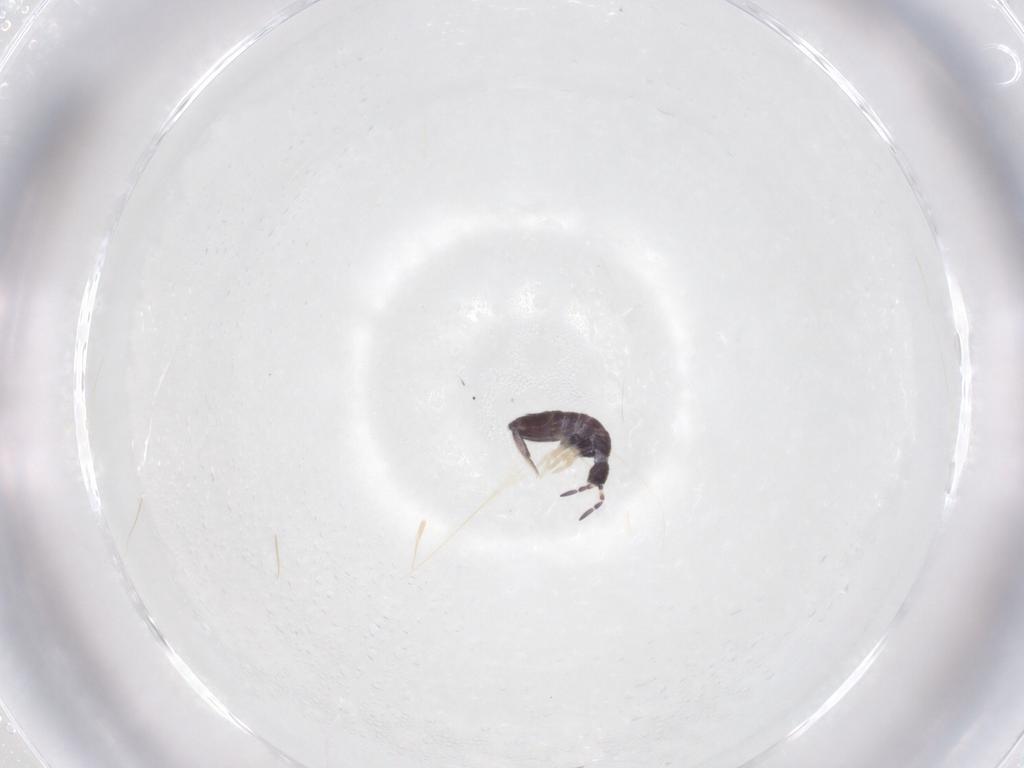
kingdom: Animalia
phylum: Arthropoda
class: Collembola
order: Entomobryomorpha
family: Entomobryidae
